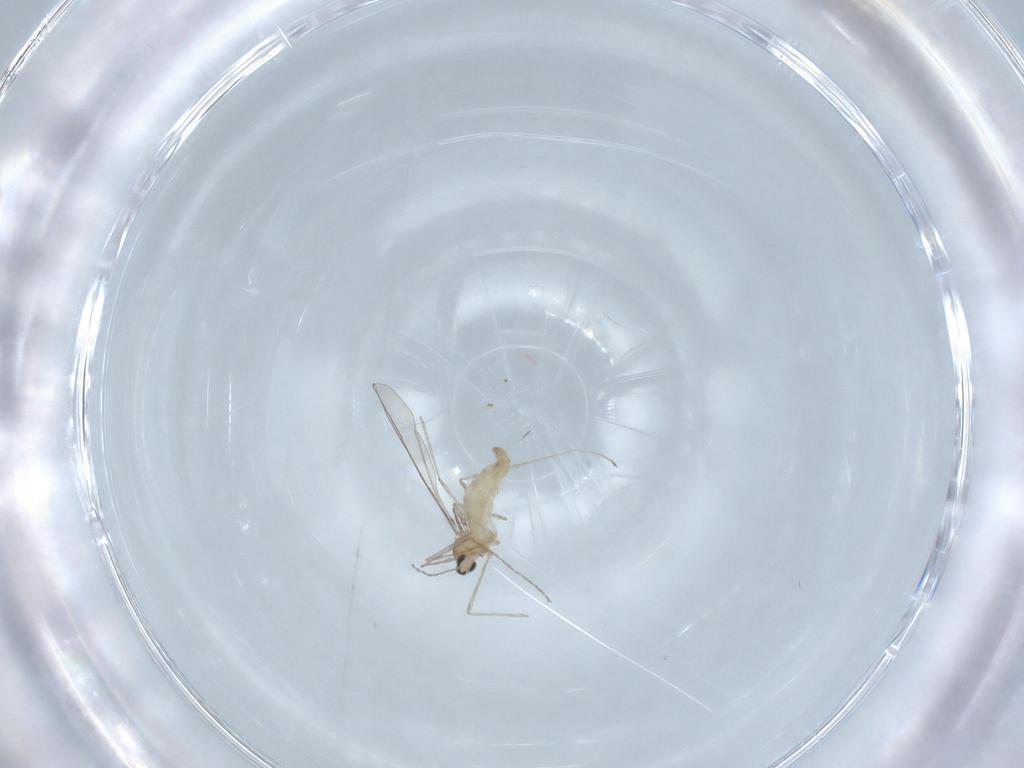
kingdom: Animalia
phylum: Arthropoda
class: Insecta
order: Diptera
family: Cecidomyiidae
